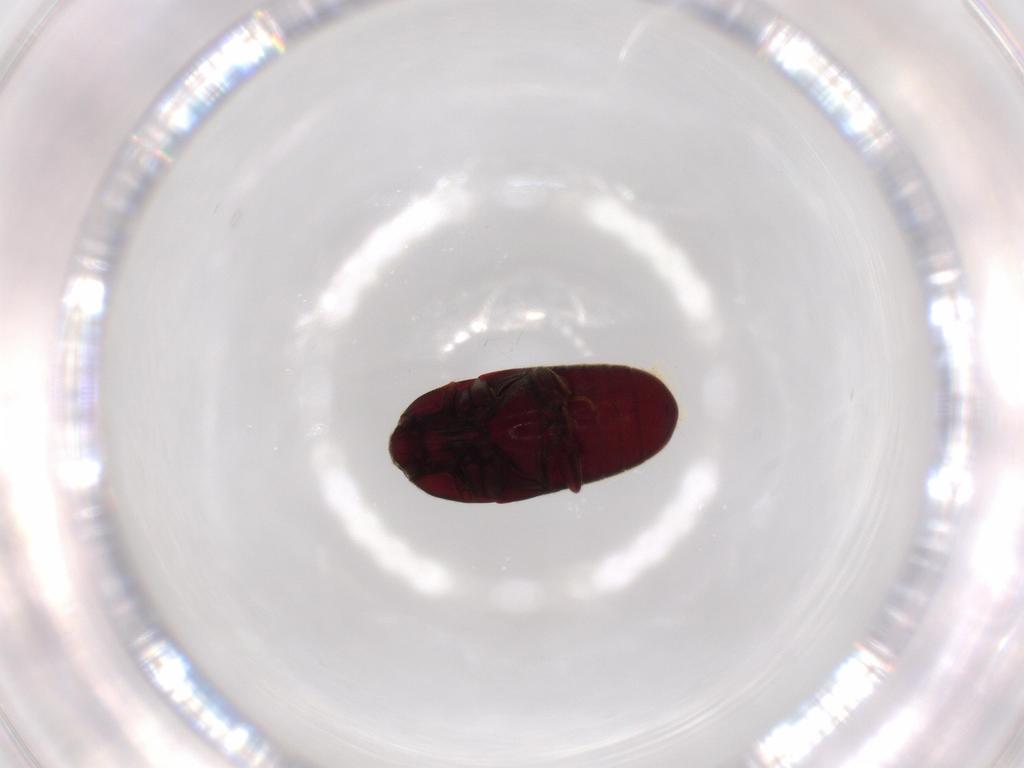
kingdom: Animalia
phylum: Arthropoda
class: Insecta
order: Coleoptera
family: Throscidae
